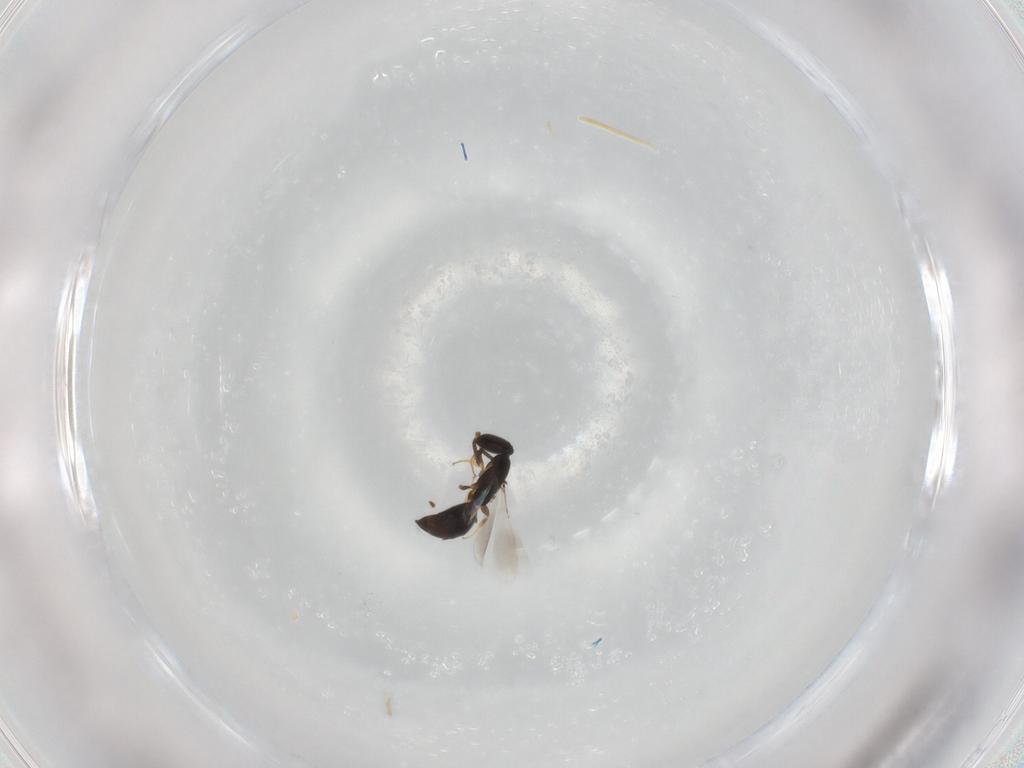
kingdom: Animalia
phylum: Arthropoda
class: Insecta
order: Hymenoptera
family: Bethylidae
